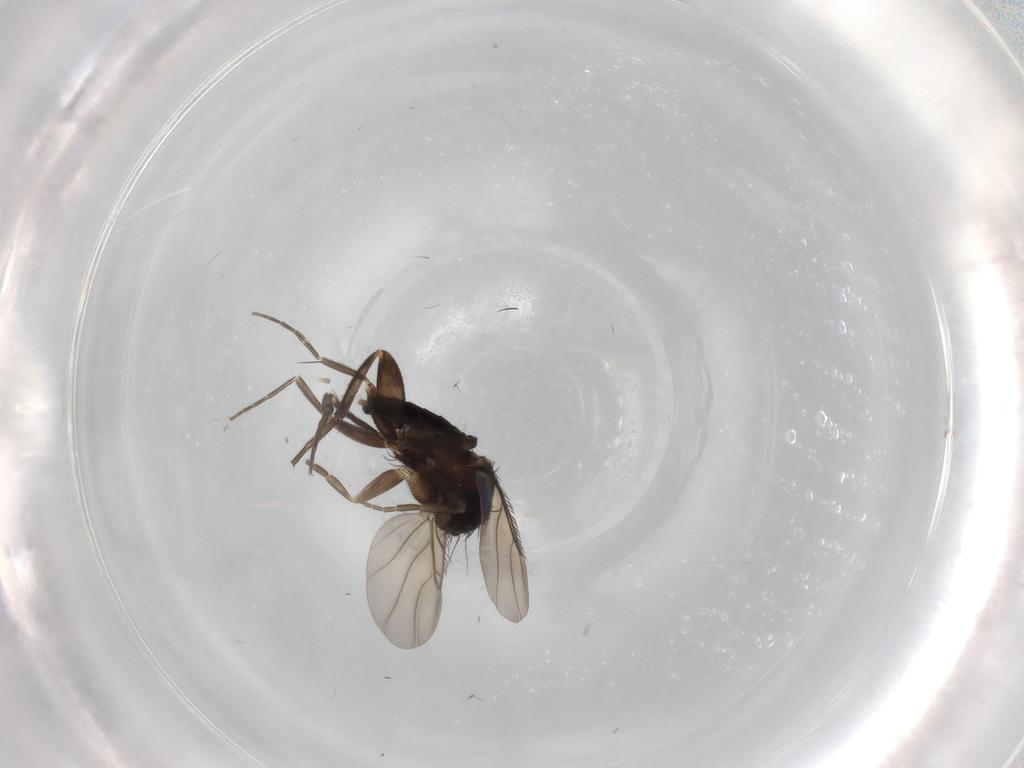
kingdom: Animalia
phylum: Arthropoda
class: Insecta
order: Diptera
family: Phoridae
